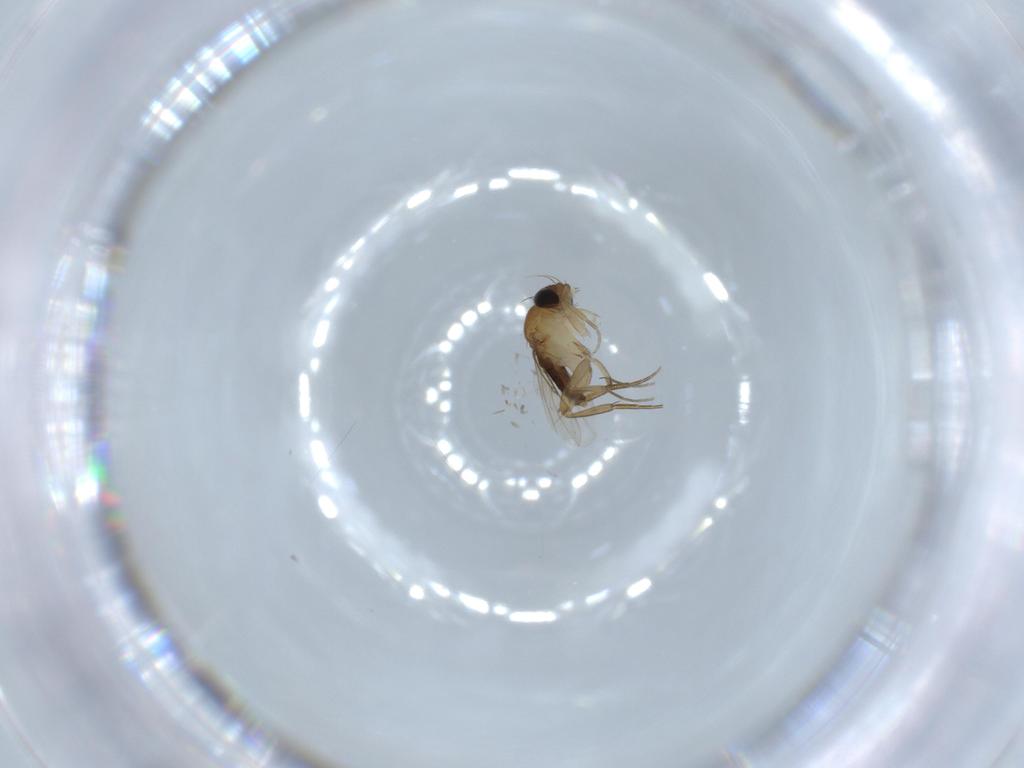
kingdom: Animalia
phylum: Arthropoda
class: Insecta
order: Diptera
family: Phoridae
